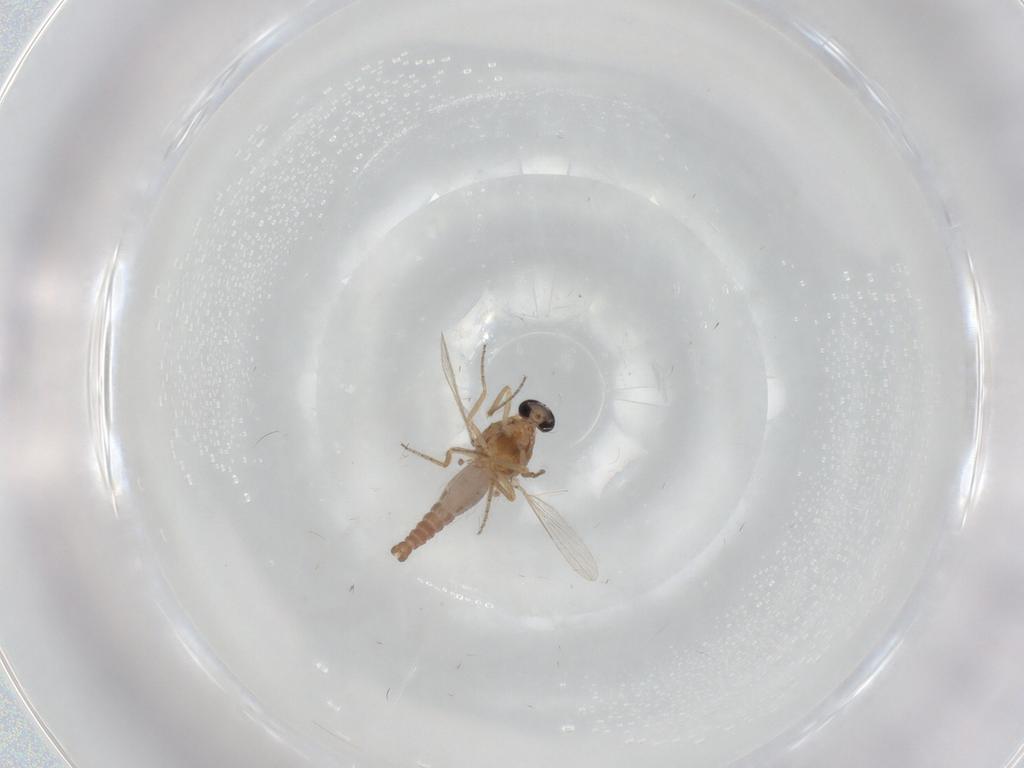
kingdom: Animalia
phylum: Arthropoda
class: Insecta
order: Diptera
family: Ceratopogonidae
